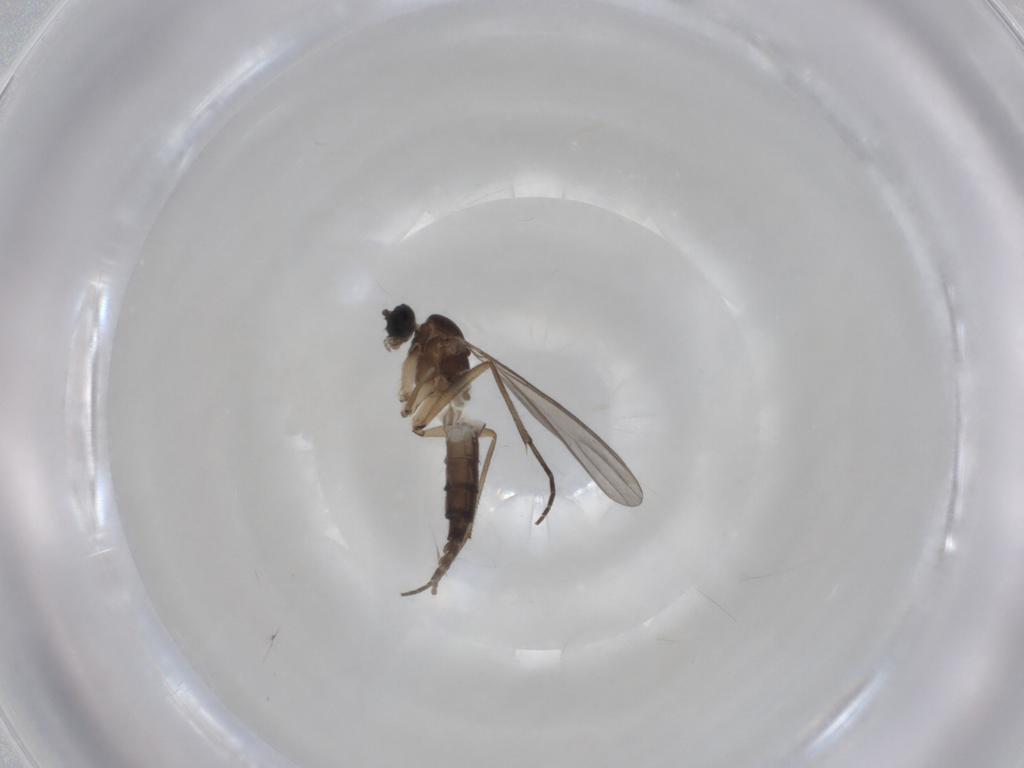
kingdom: Animalia
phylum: Arthropoda
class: Insecta
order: Diptera
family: Sciaridae
